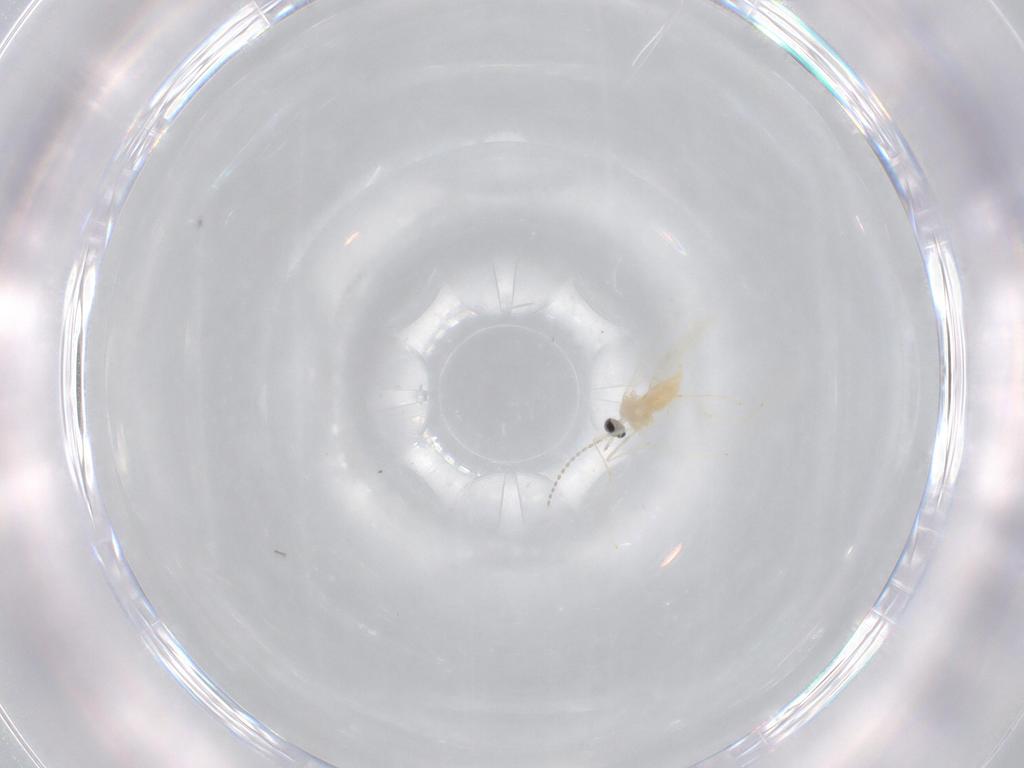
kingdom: Animalia
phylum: Arthropoda
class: Insecta
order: Diptera
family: Cecidomyiidae
